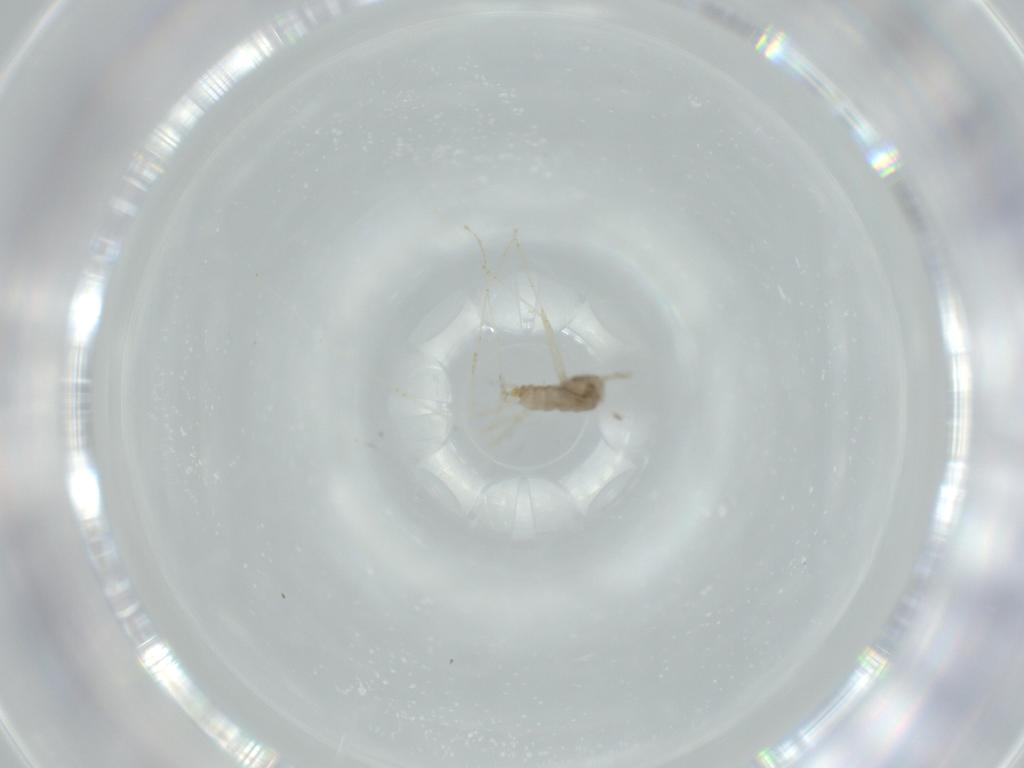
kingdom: Animalia
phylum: Arthropoda
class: Insecta
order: Diptera
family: Cecidomyiidae
